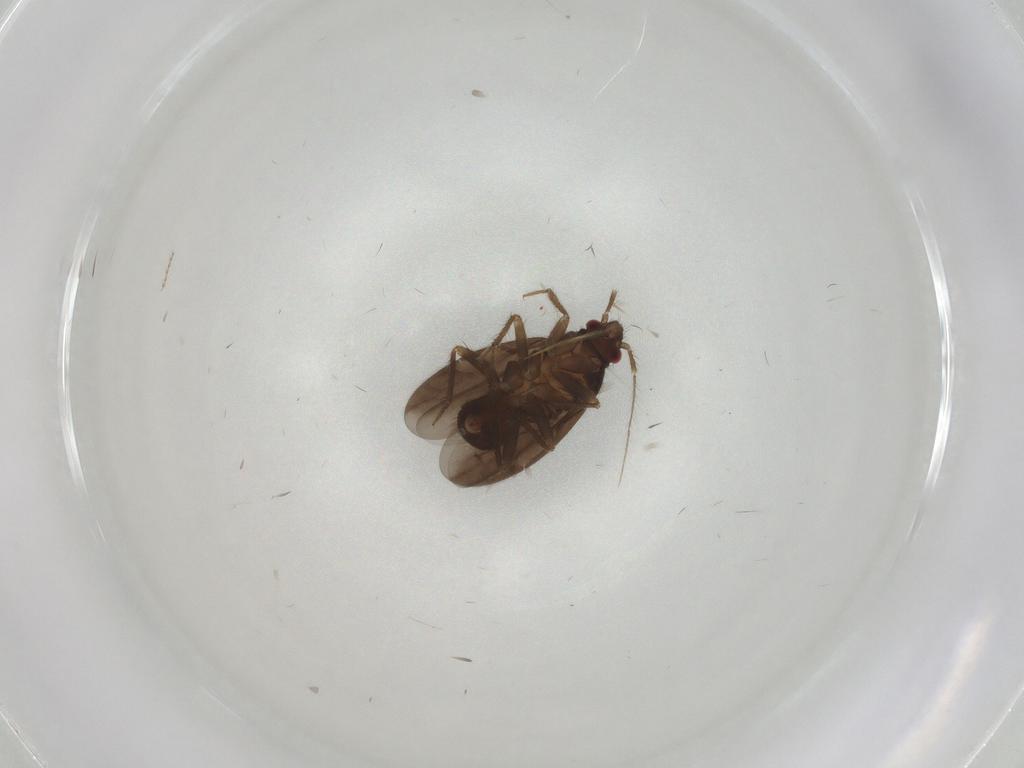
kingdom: Animalia
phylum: Arthropoda
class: Insecta
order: Hemiptera
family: Ceratocombidae
